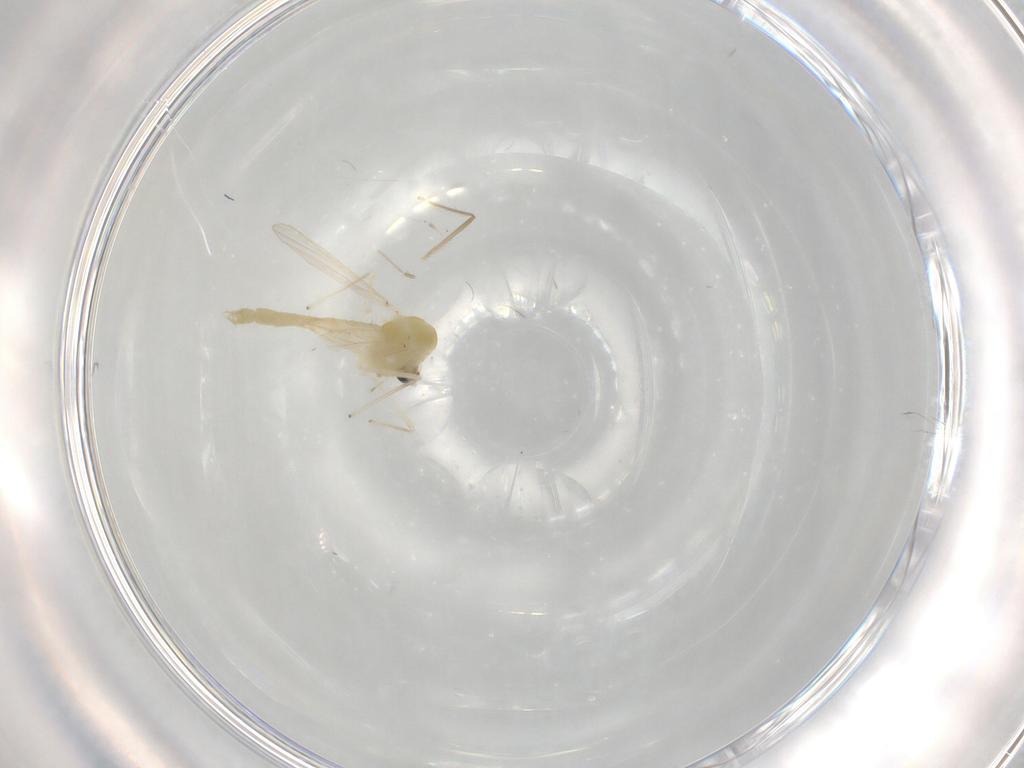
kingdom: Animalia
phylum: Arthropoda
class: Insecta
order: Diptera
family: Chironomidae
